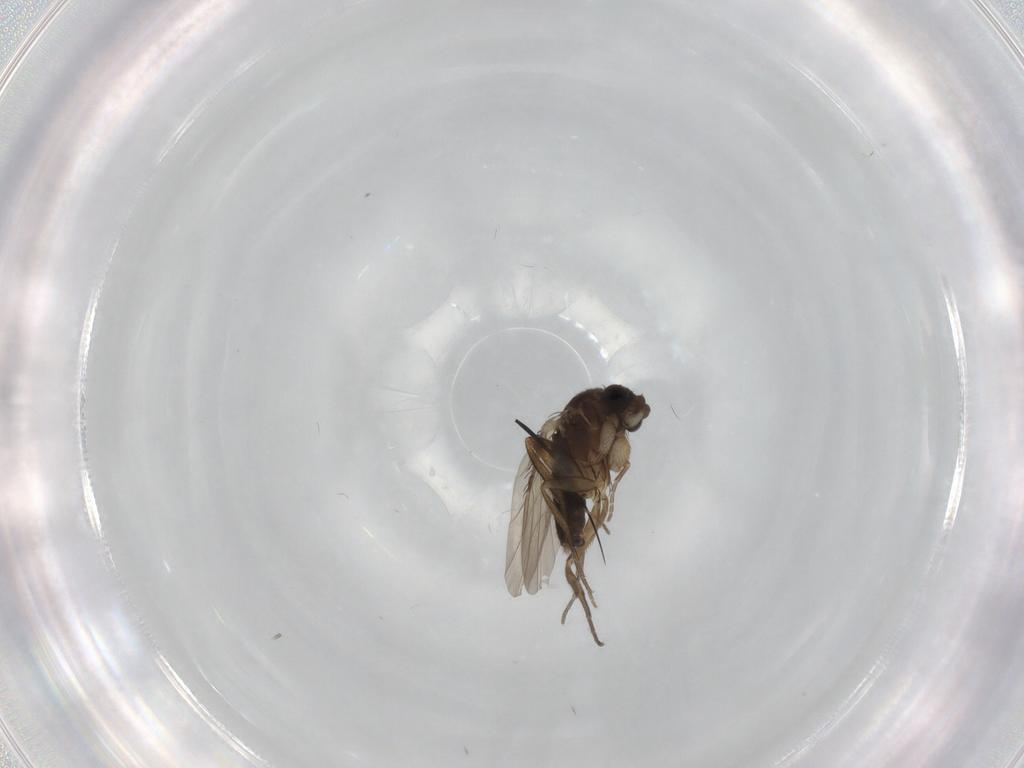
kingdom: Animalia
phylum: Arthropoda
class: Insecta
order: Diptera
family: Phoridae
